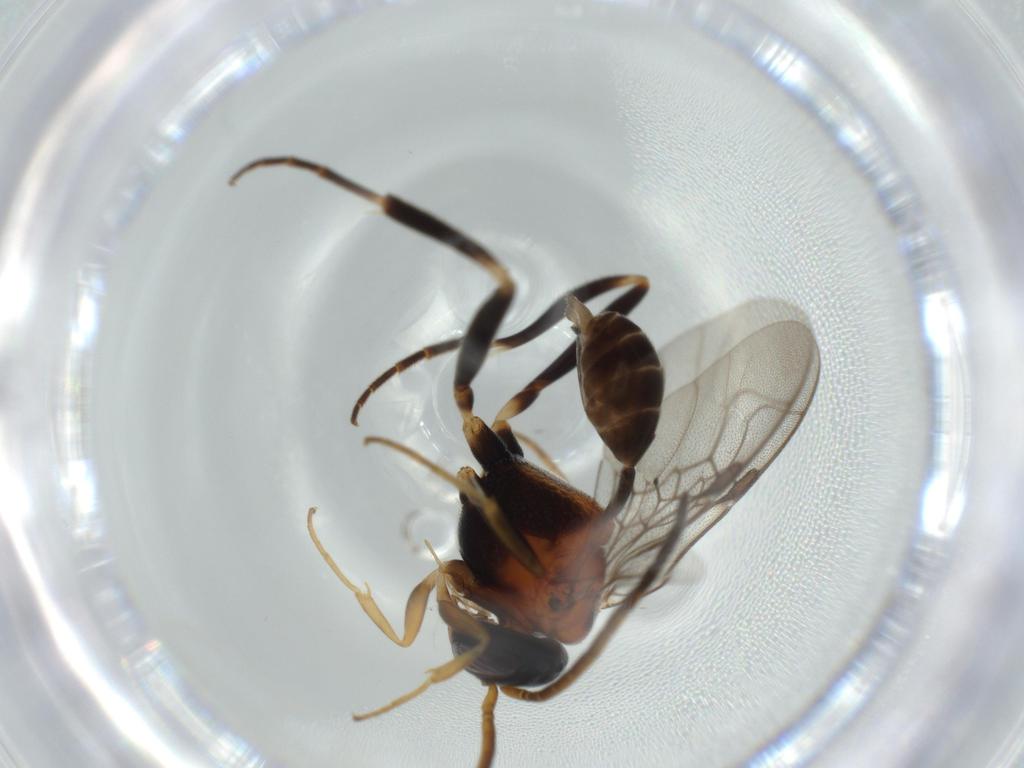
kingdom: Animalia
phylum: Arthropoda
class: Insecta
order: Hymenoptera
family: Evaniidae
